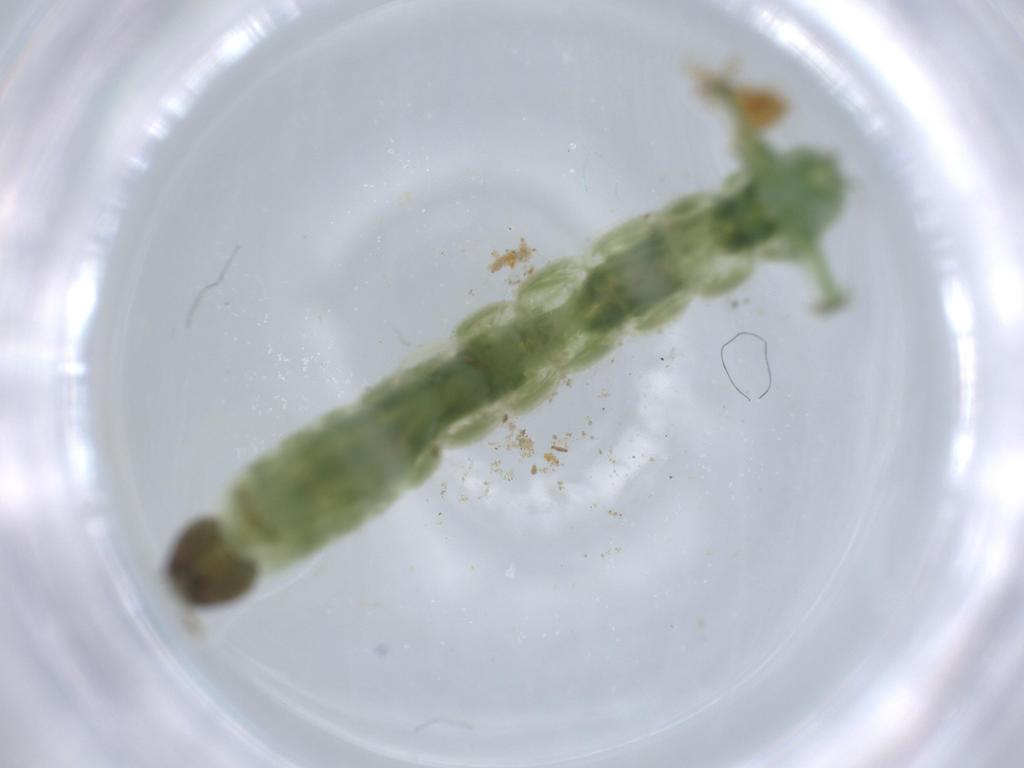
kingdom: Animalia
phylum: Arthropoda
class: Insecta
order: Diptera
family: Chironomidae
